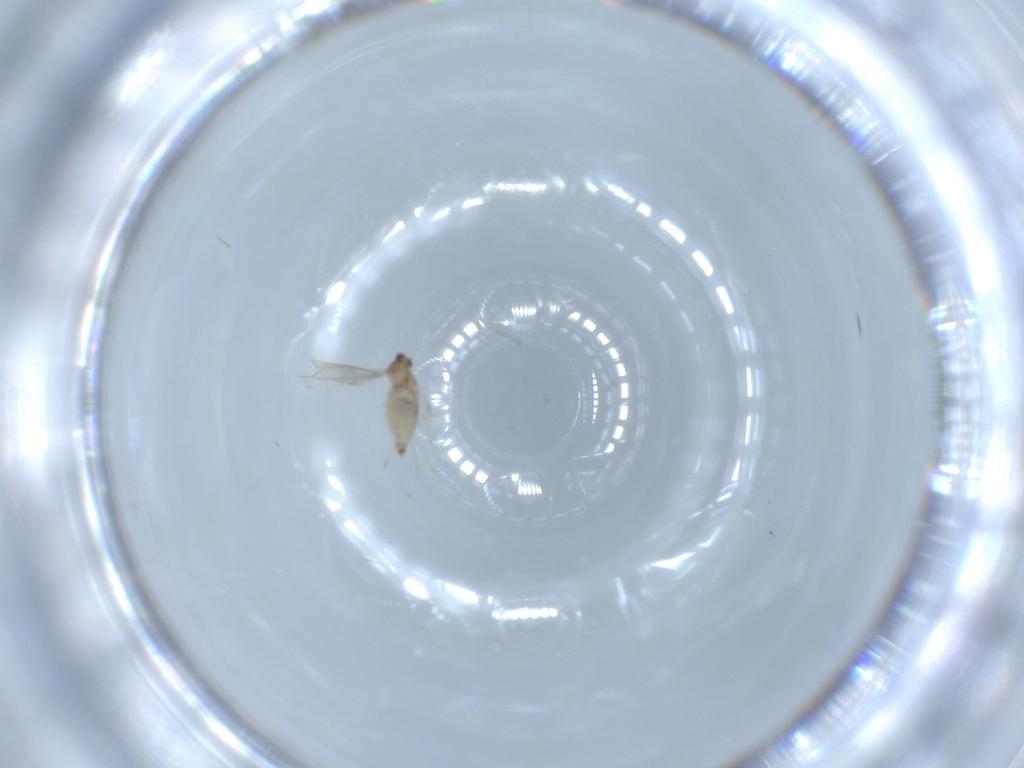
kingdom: Animalia
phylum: Arthropoda
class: Insecta
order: Diptera
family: Cecidomyiidae
